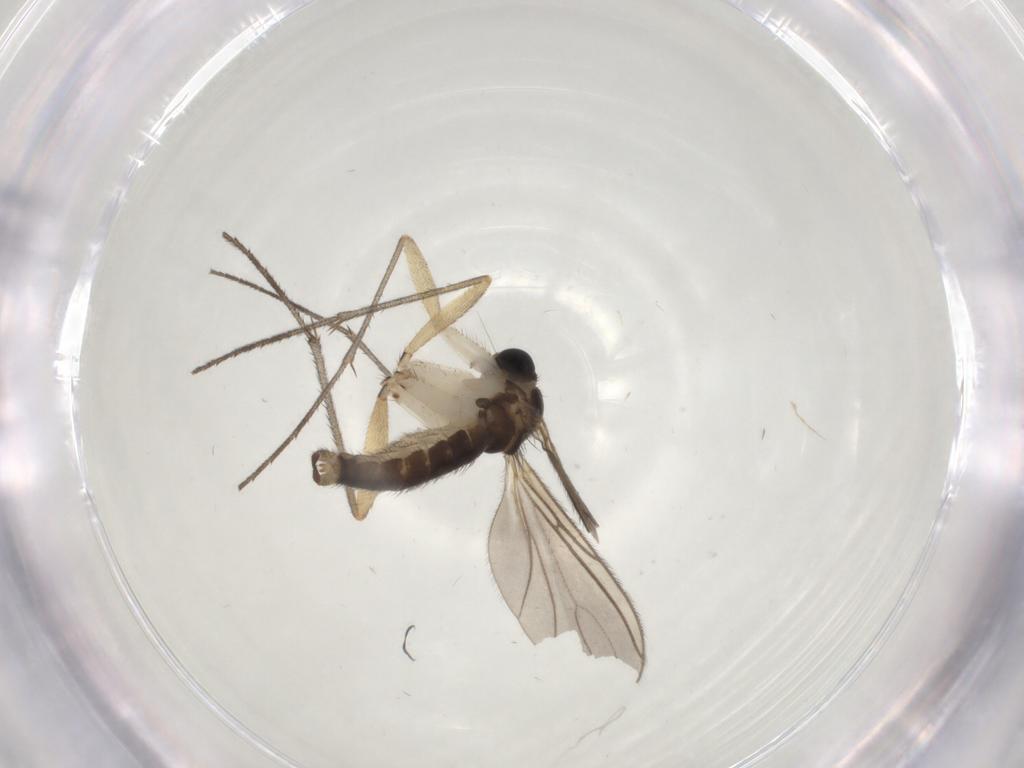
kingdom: Animalia
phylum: Arthropoda
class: Insecta
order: Diptera
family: Sciaridae
